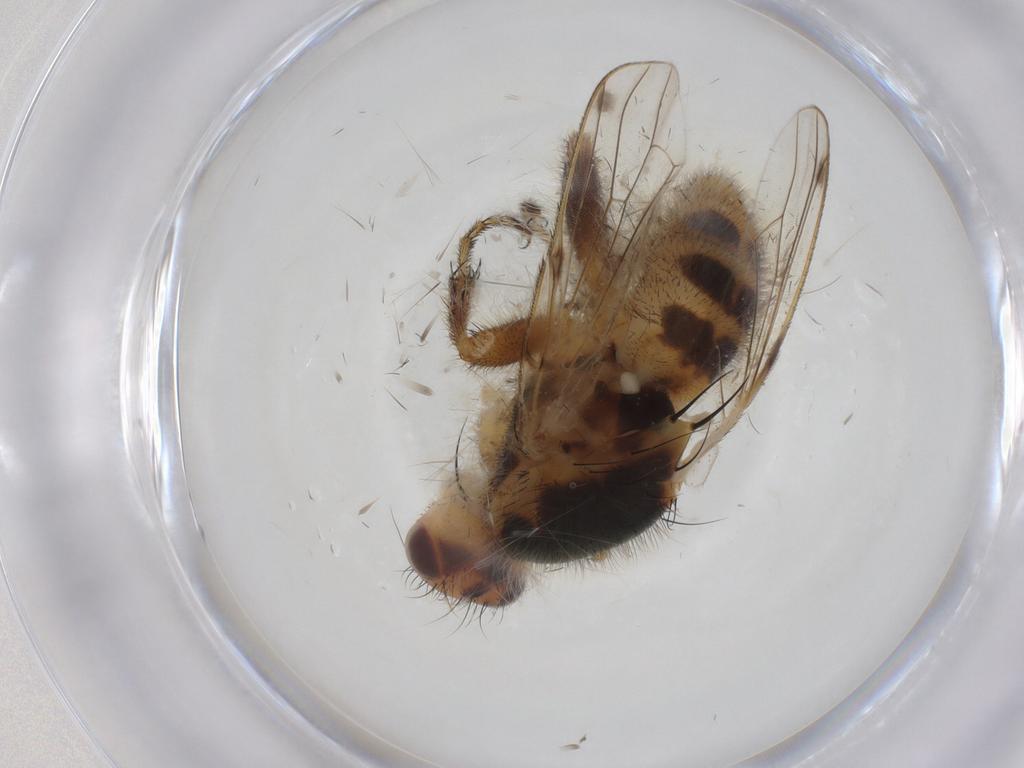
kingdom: Animalia
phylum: Arthropoda
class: Insecta
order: Diptera
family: Richardiidae
